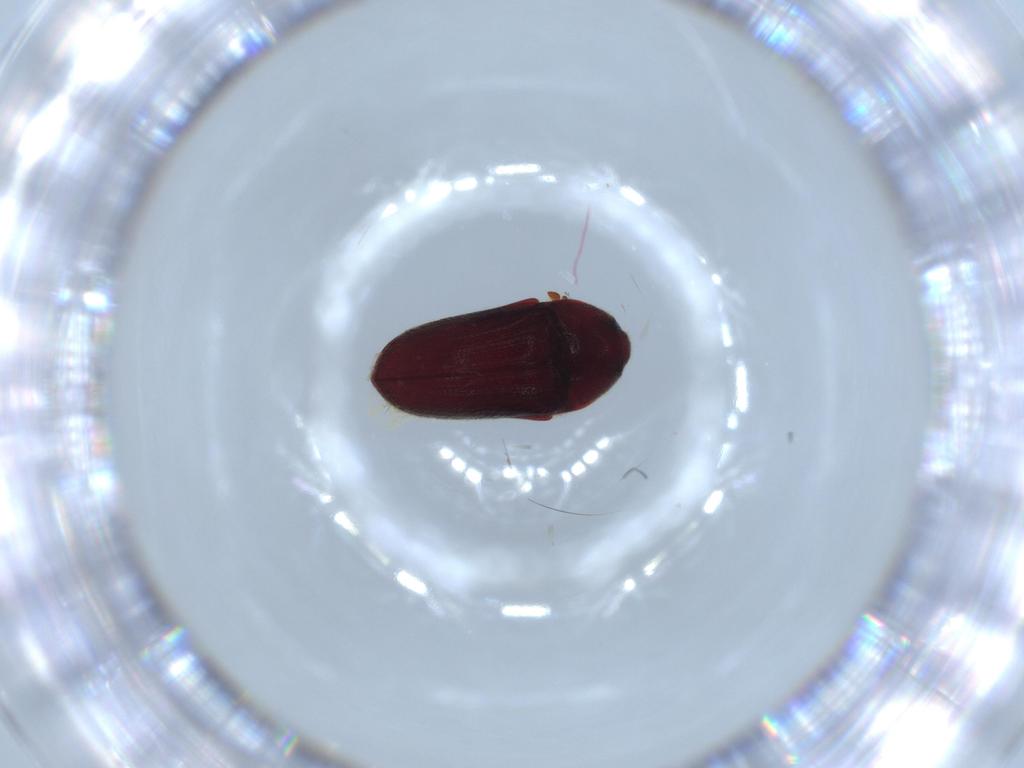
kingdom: Animalia
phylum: Arthropoda
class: Insecta
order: Coleoptera
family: Throscidae
